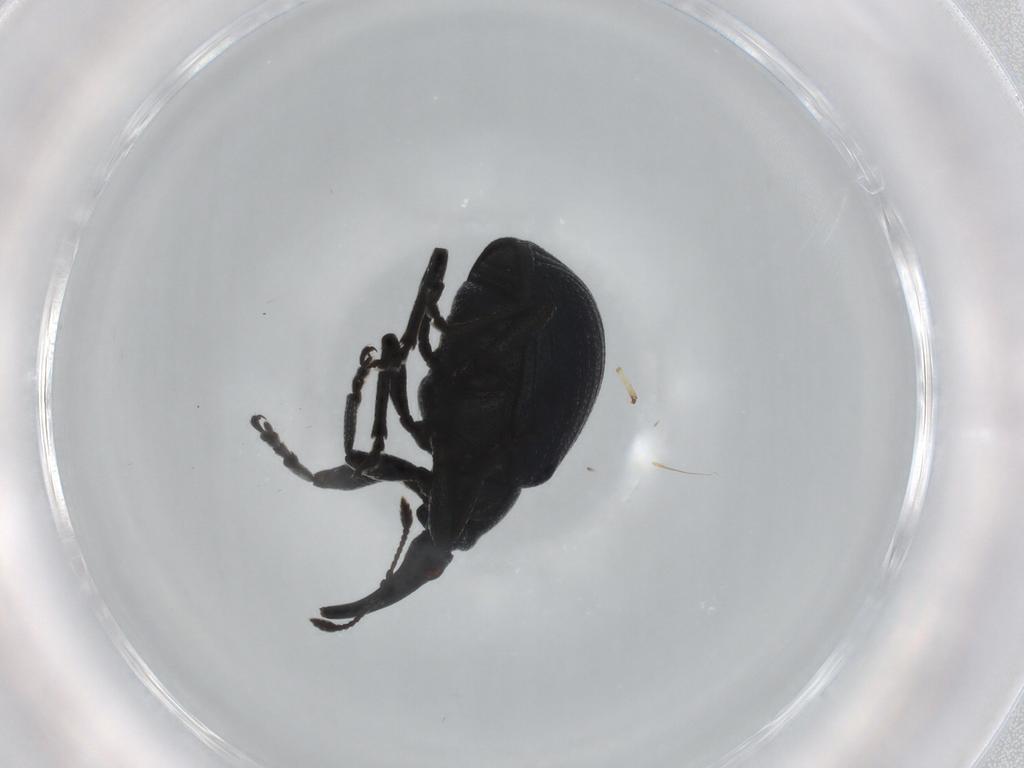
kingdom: Animalia
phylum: Arthropoda
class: Insecta
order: Coleoptera
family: Brentidae
